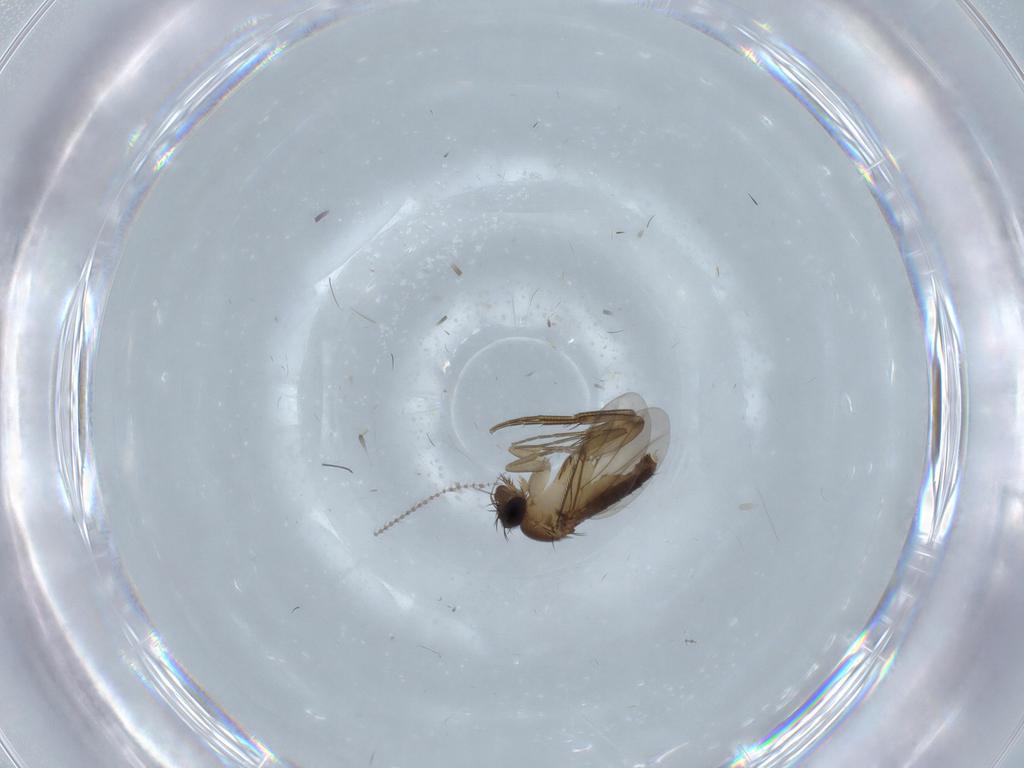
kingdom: Animalia
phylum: Arthropoda
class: Insecta
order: Diptera
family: Phoridae
